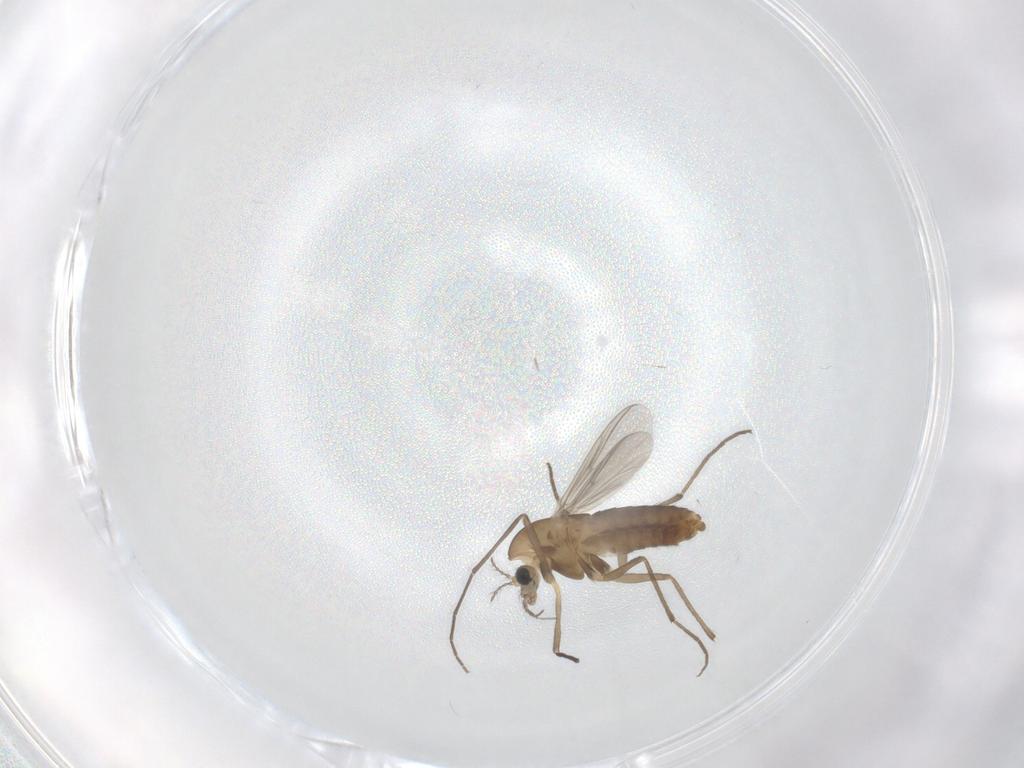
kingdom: Animalia
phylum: Arthropoda
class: Insecta
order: Diptera
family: Chironomidae
